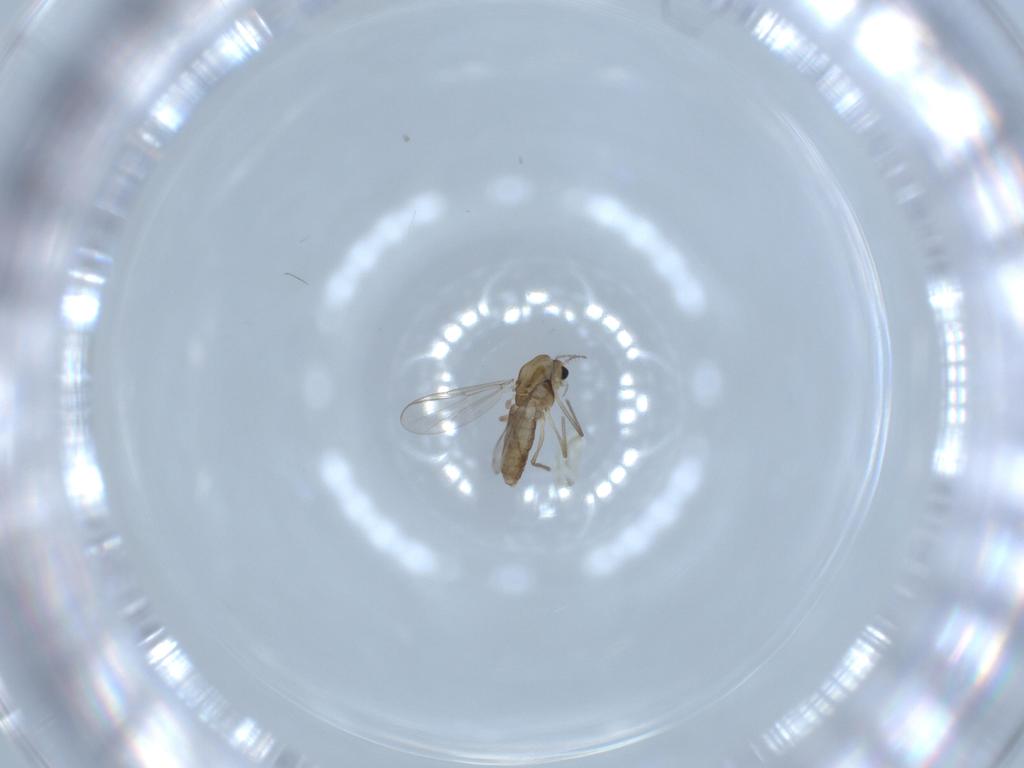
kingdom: Animalia
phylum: Arthropoda
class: Insecta
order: Diptera
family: Chironomidae
